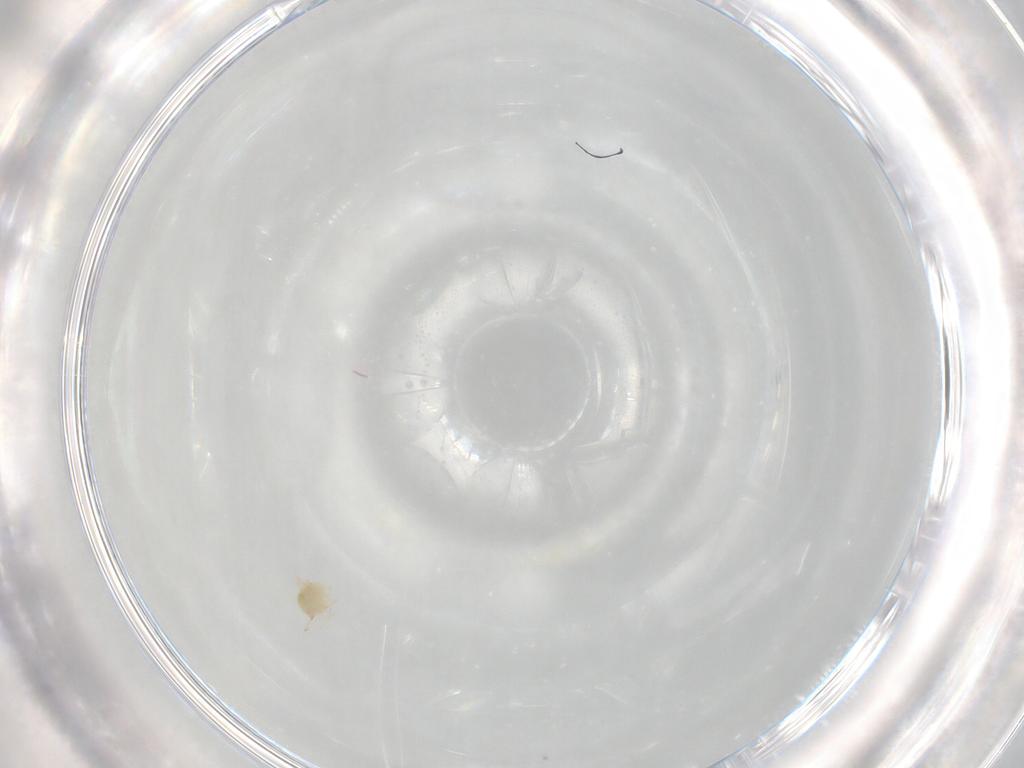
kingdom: Animalia
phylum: Arthropoda
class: Arachnida
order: Trombidiformes
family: Cunaxidae
